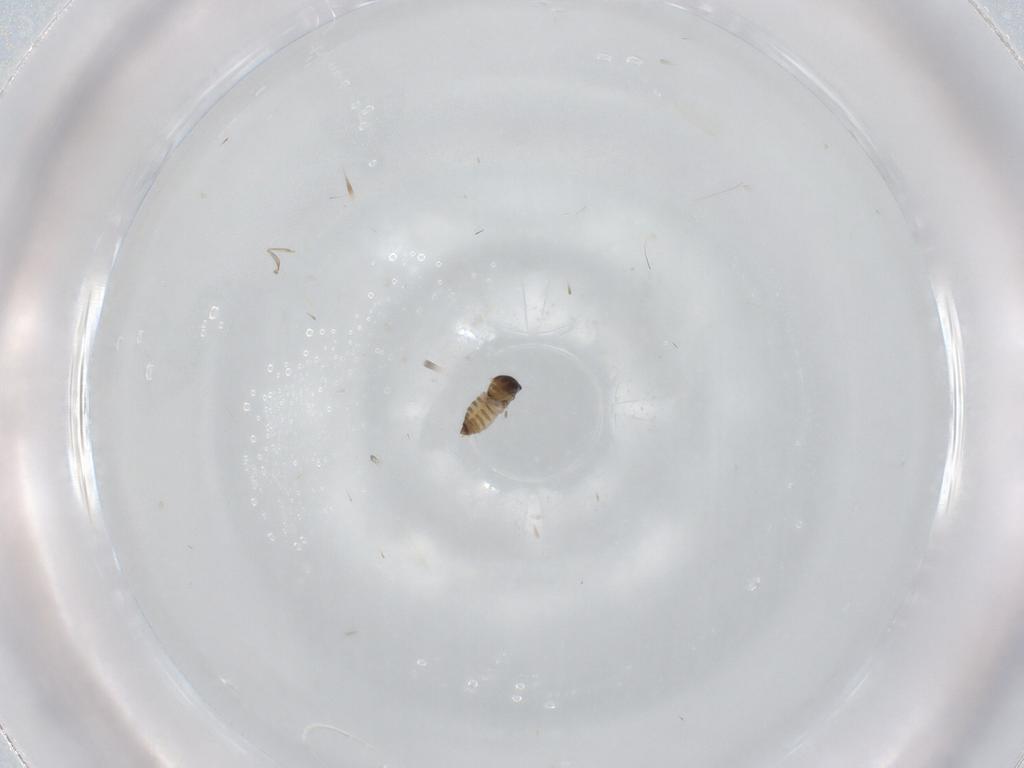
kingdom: Animalia
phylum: Arthropoda
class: Insecta
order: Diptera
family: Cecidomyiidae
